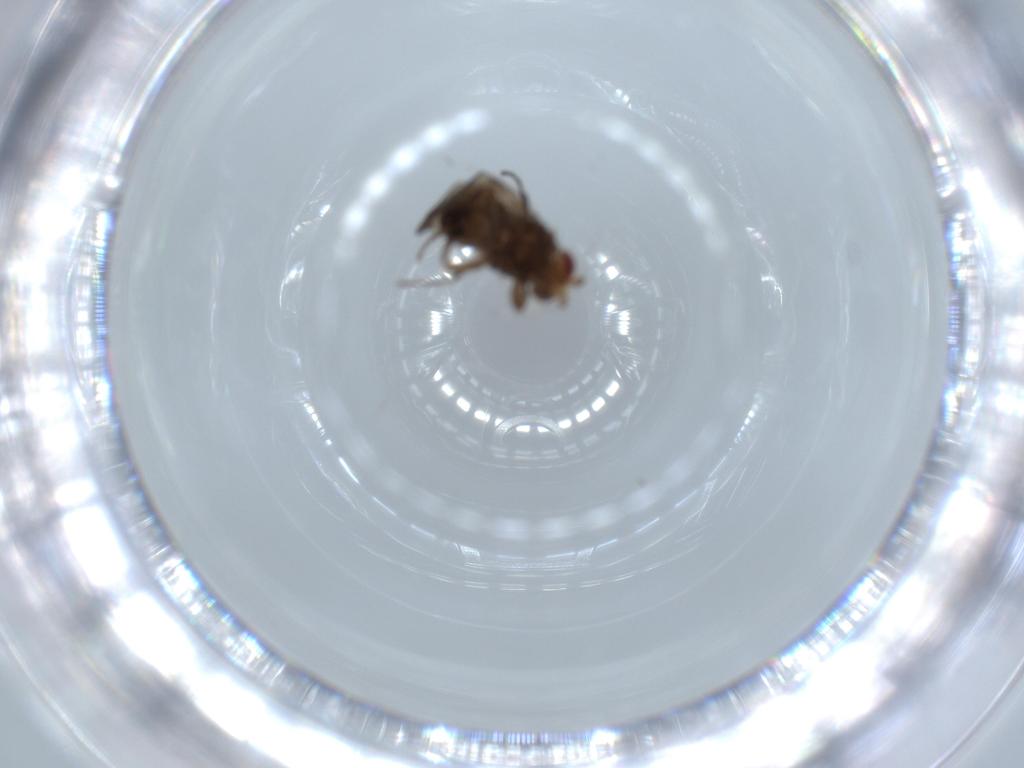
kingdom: Animalia
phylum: Arthropoda
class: Insecta
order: Diptera
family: Sphaeroceridae
